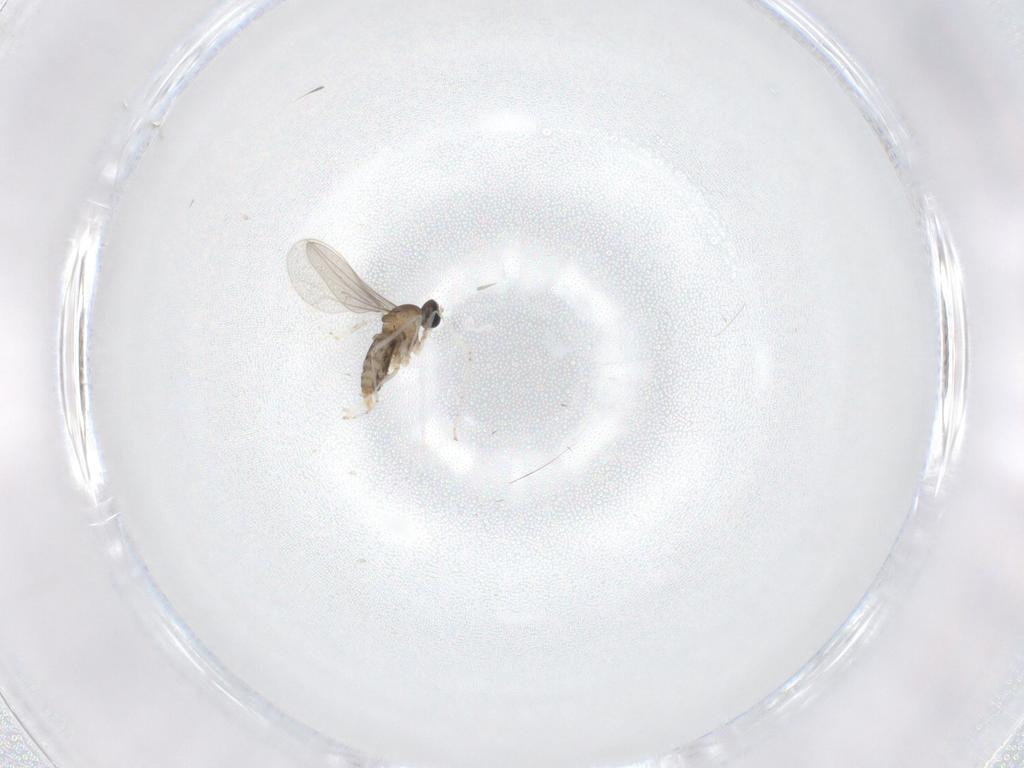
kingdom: Animalia
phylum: Arthropoda
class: Insecta
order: Diptera
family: Cecidomyiidae
